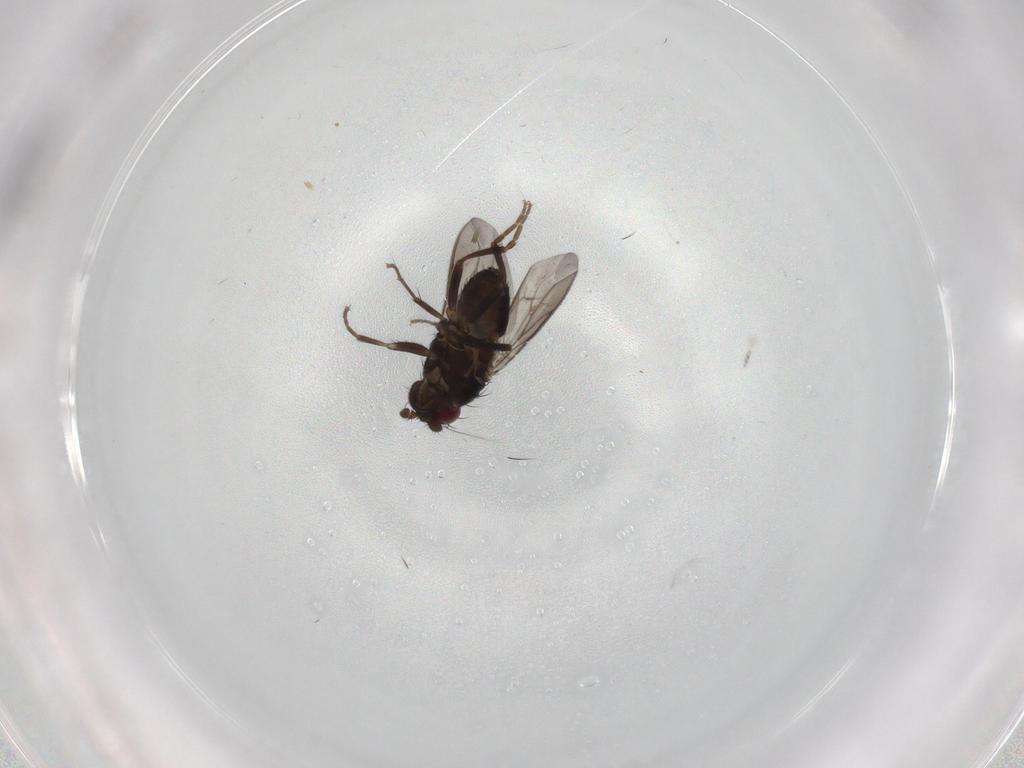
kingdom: Animalia
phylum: Arthropoda
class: Insecta
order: Diptera
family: Sphaeroceridae
